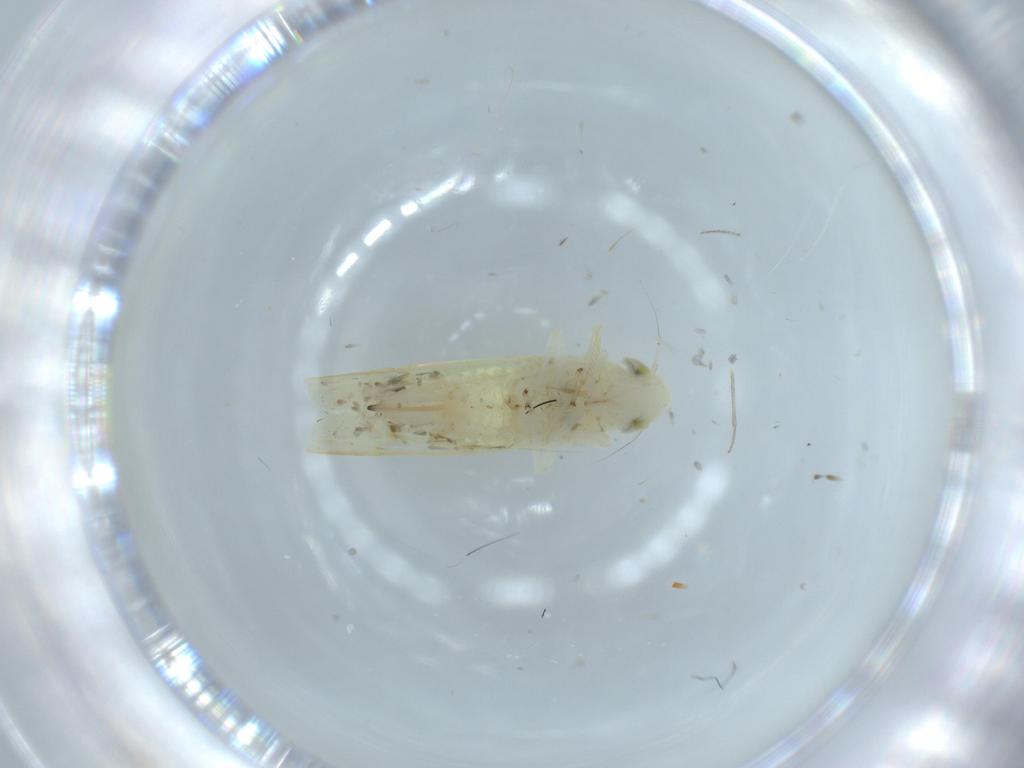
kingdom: Animalia
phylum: Arthropoda
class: Insecta
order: Hemiptera
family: Cicadellidae
